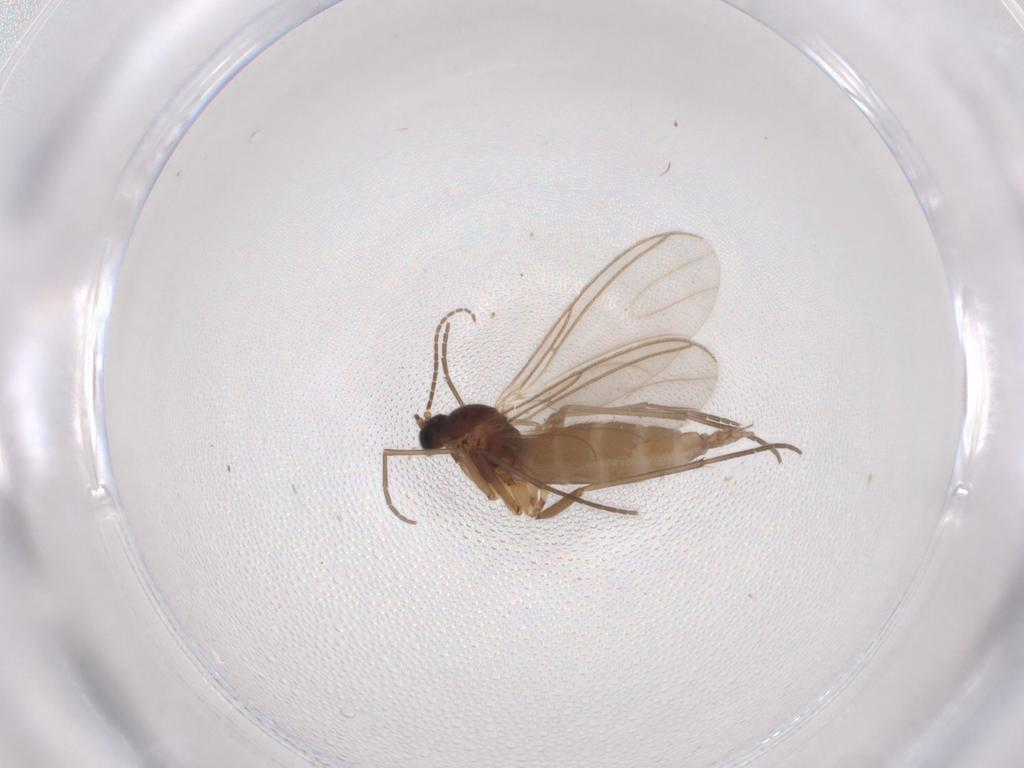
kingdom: Animalia
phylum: Arthropoda
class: Insecta
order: Diptera
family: Sciaridae
